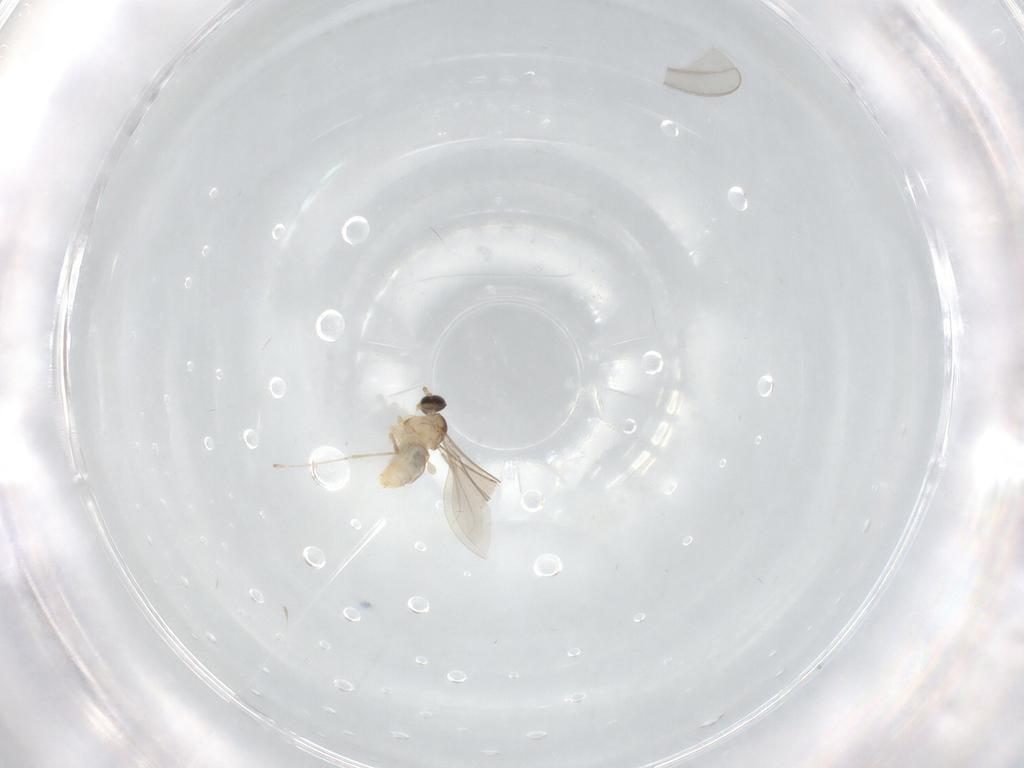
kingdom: Animalia
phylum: Arthropoda
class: Insecta
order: Diptera
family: Cecidomyiidae
